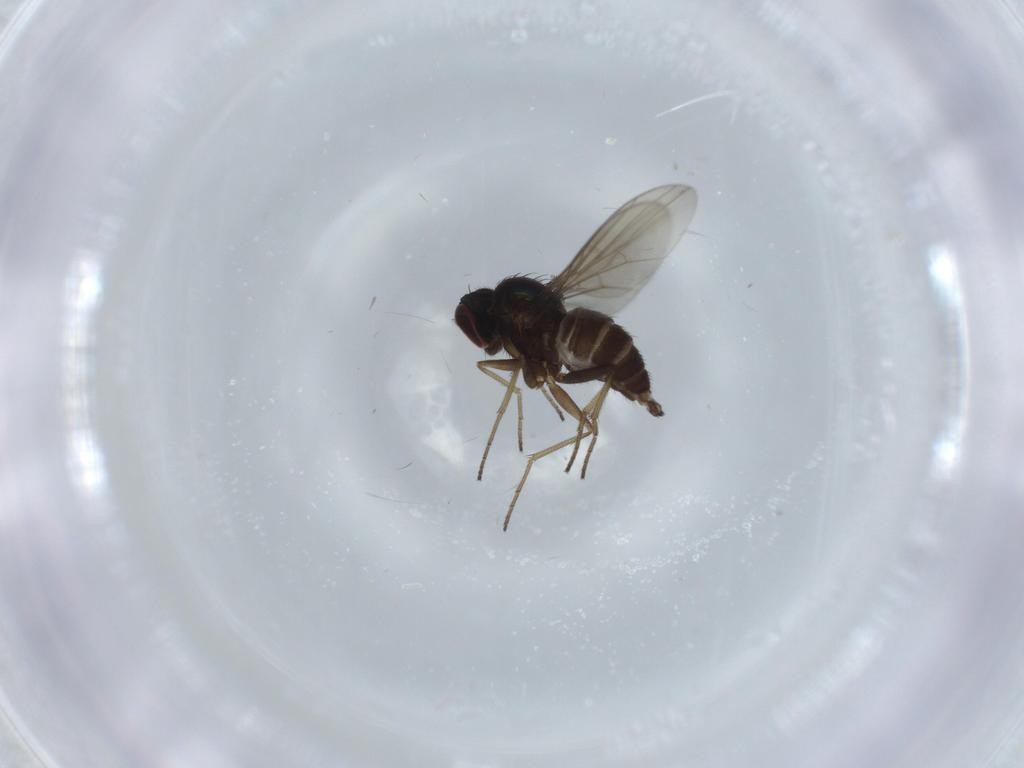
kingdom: Animalia
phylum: Arthropoda
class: Insecta
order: Diptera
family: Dolichopodidae
